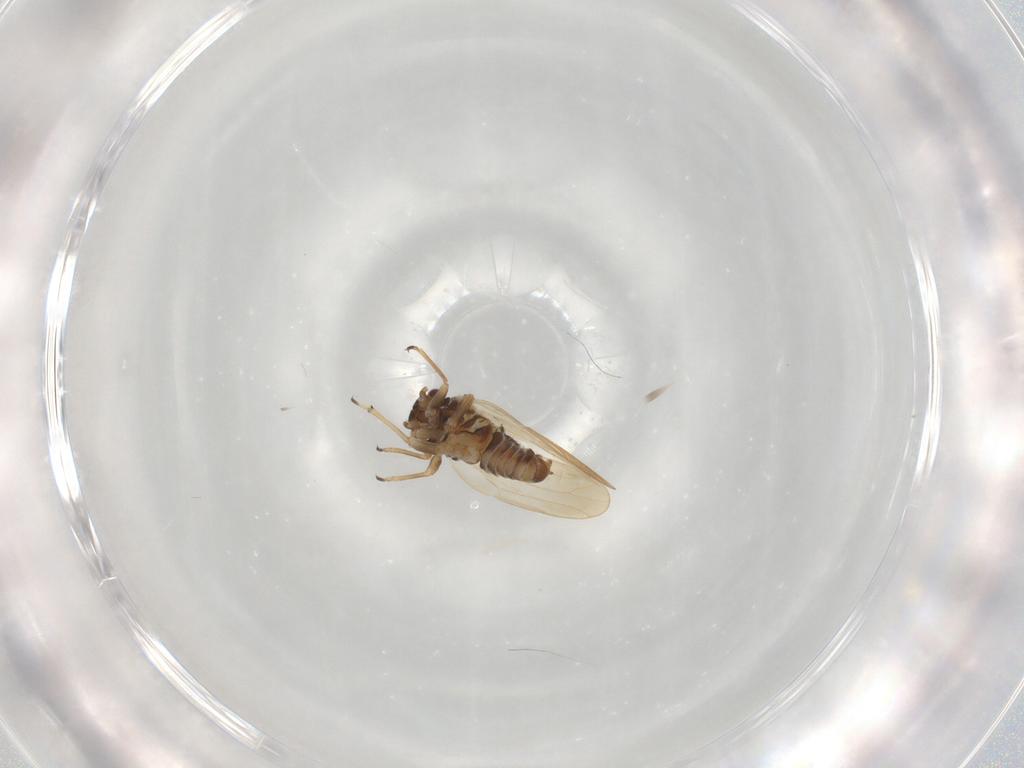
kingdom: Animalia
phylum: Arthropoda
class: Insecta
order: Hemiptera
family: Psylloidea_incertae_sedis
